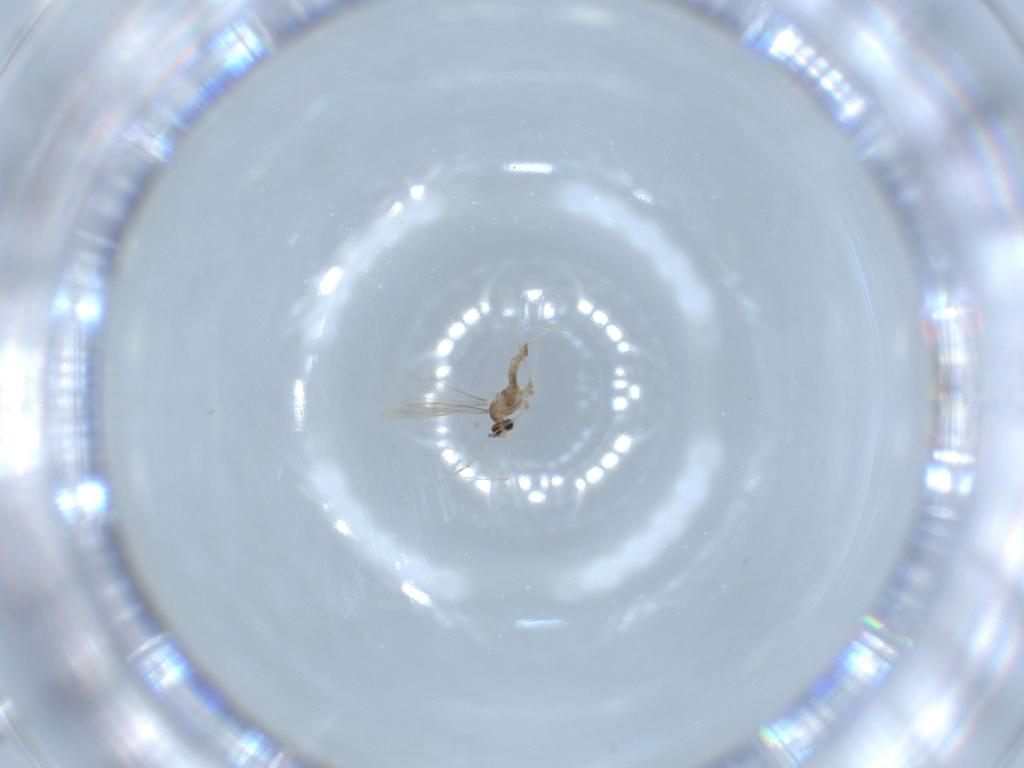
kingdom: Animalia
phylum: Arthropoda
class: Insecta
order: Diptera
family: Cecidomyiidae
